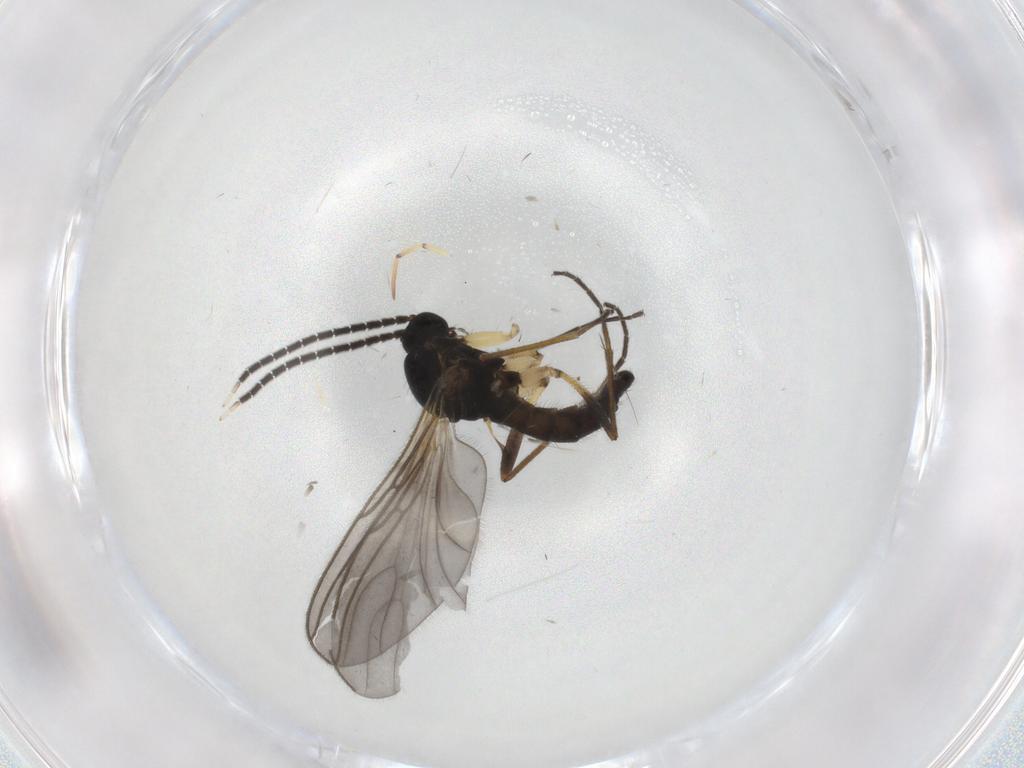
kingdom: Animalia
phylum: Arthropoda
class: Insecta
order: Diptera
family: Sciaridae
